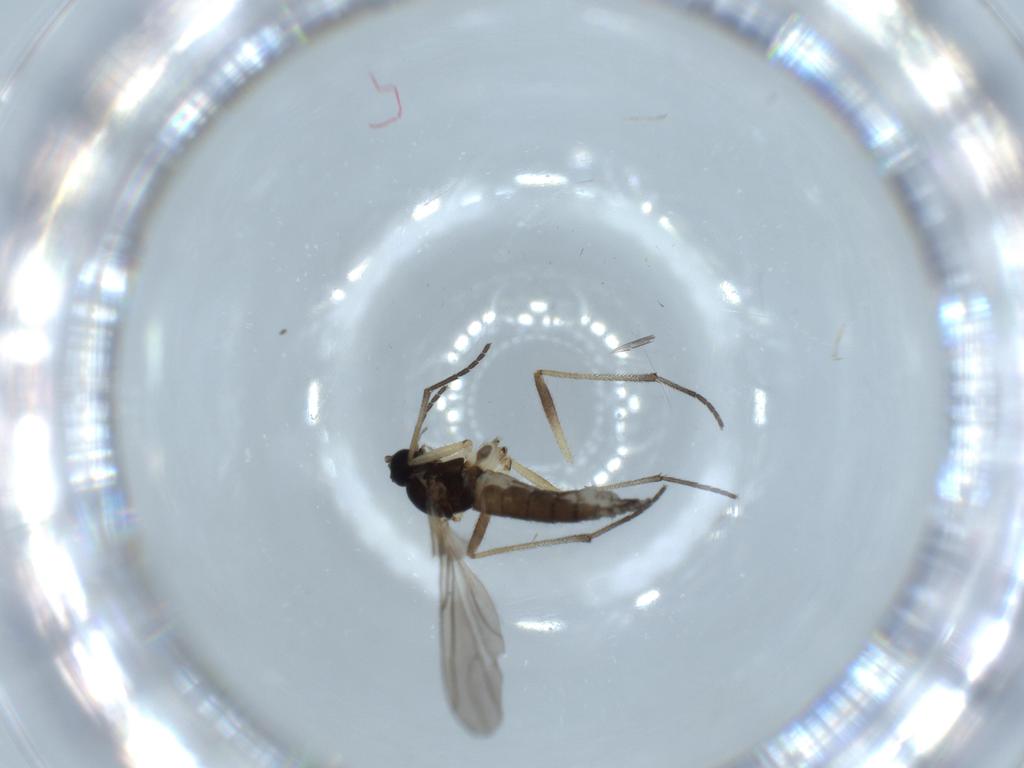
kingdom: Animalia
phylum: Arthropoda
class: Insecta
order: Diptera
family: Sciaridae
